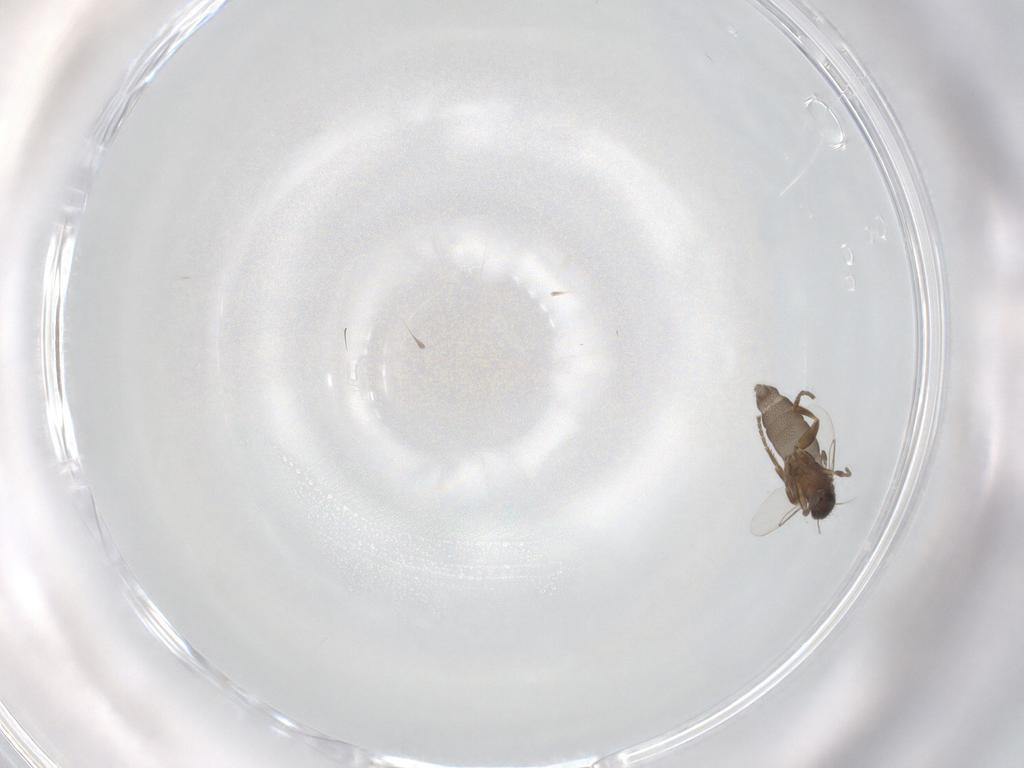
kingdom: Animalia
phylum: Arthropoda
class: Insecta
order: Diptera
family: Phoridae
